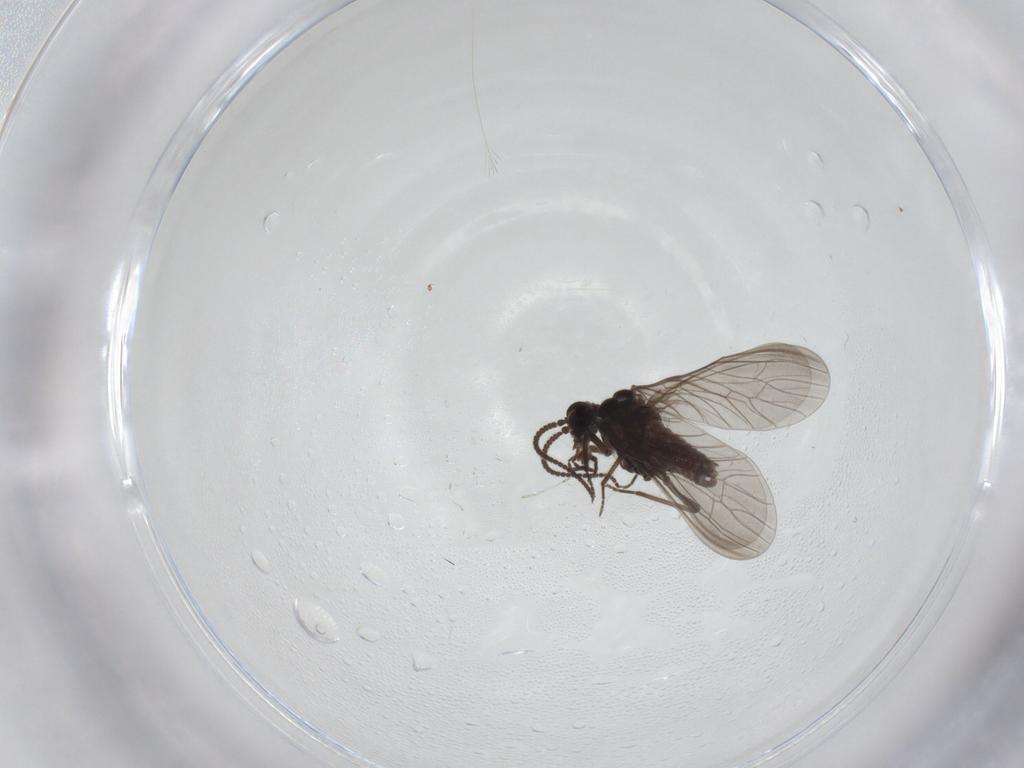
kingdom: Animalia
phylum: Arthropoda
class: Insecta
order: Neuroptera
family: Coniopterygidae
